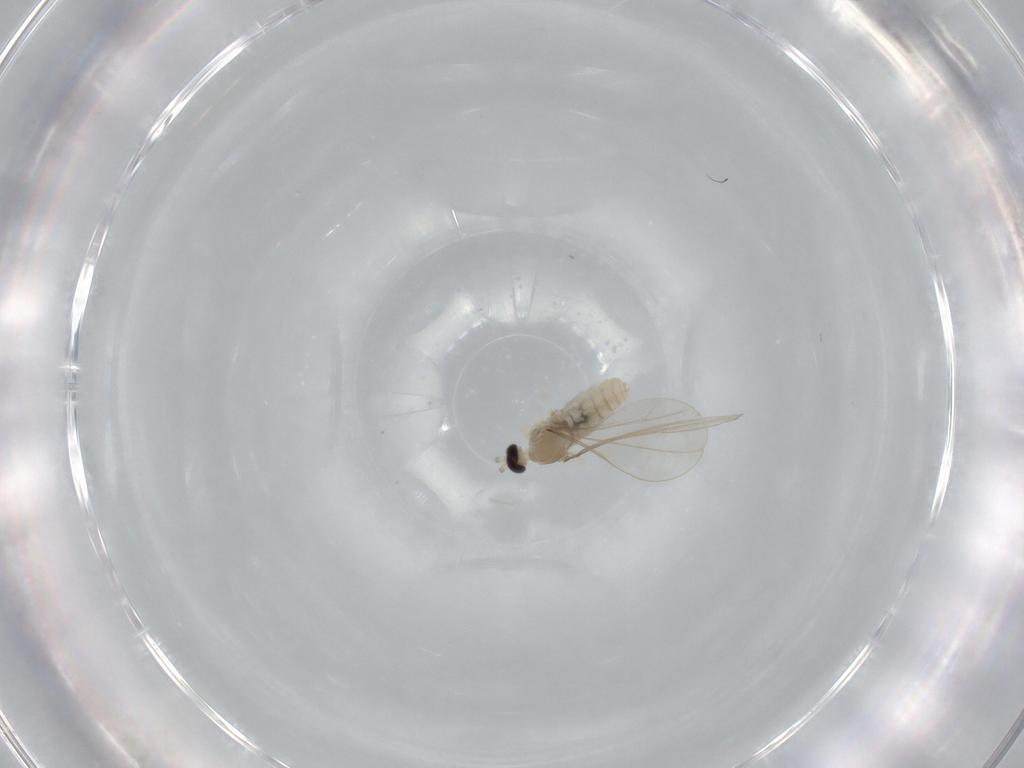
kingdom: Animalia
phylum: Arthropoda
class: Insecta
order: Diptera
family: Cecidomyiidae
